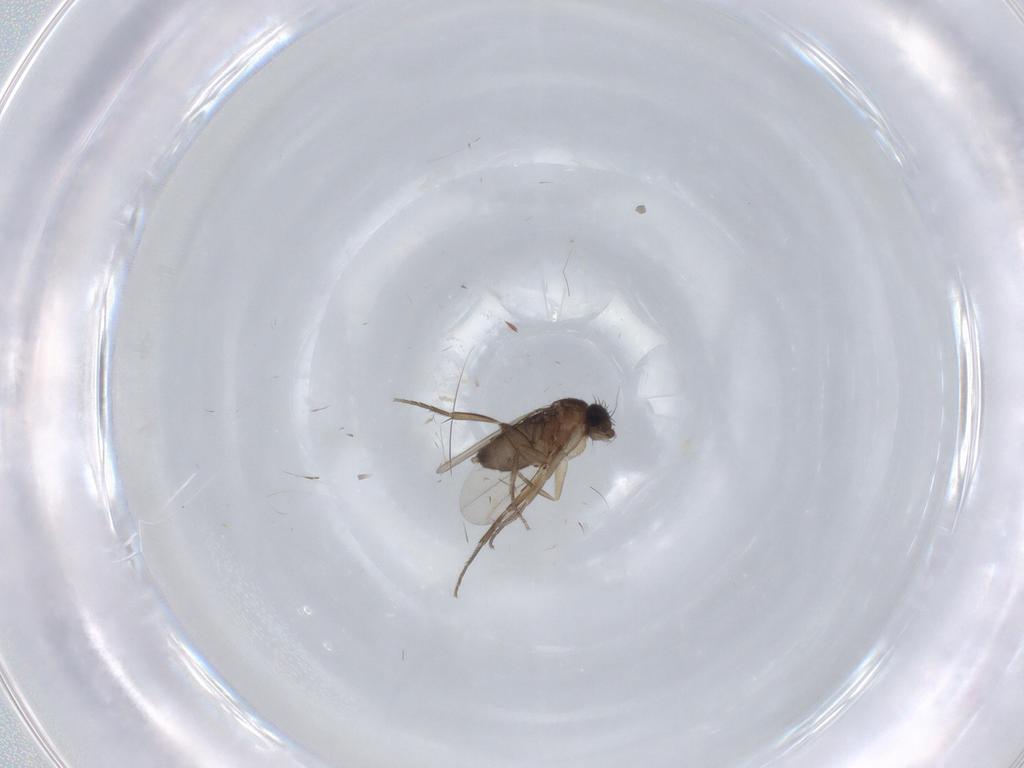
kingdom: Animalia
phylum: Arthropoda
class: Insecta
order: Diptera
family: Phoridae
